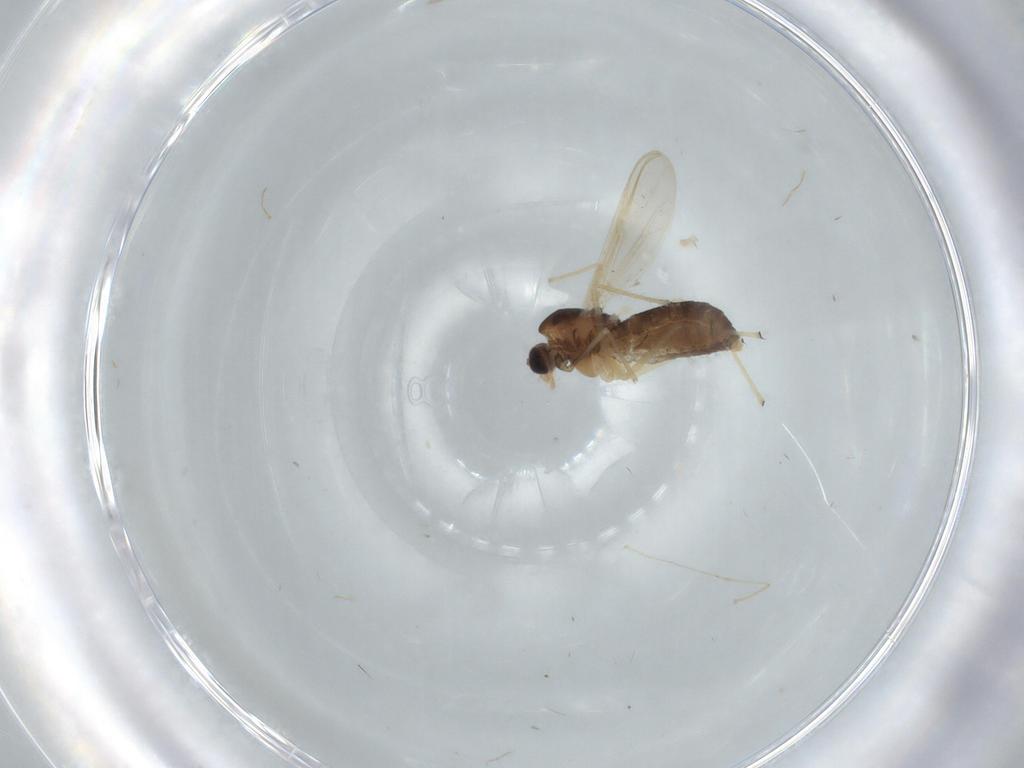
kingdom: Animalia
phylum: Arthropoda
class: Insecta
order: Diptera
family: Chironomidae
